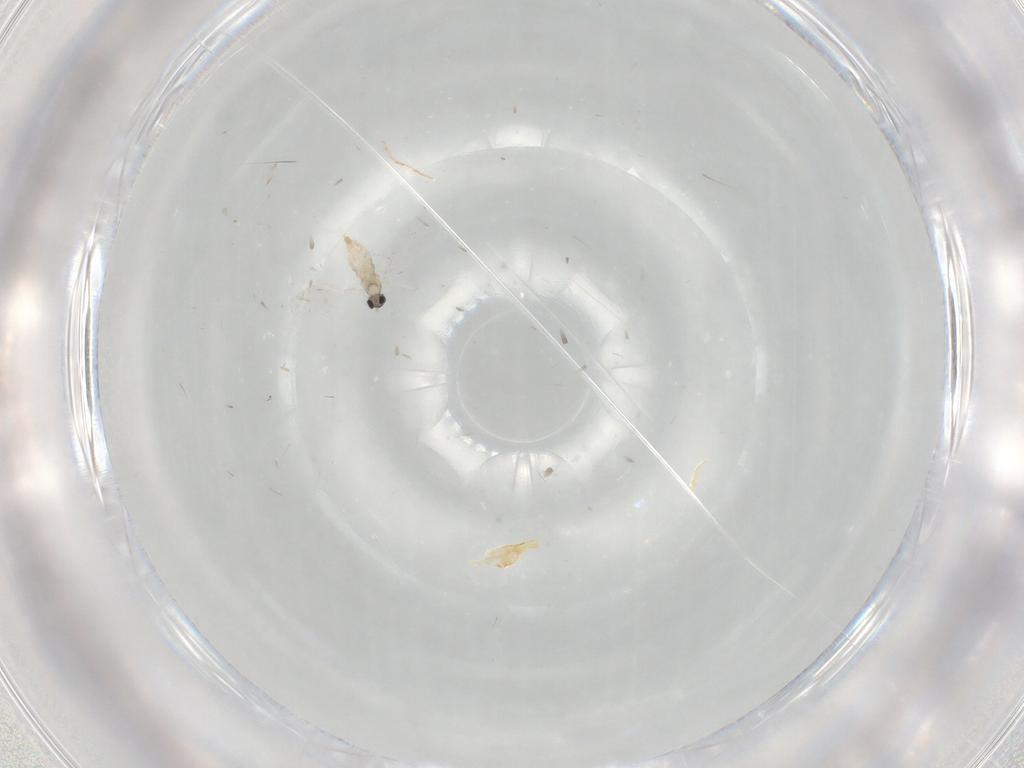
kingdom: Animalia
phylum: Arthropoda
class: Insecta
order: Diptera
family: Cecidomyiidae
